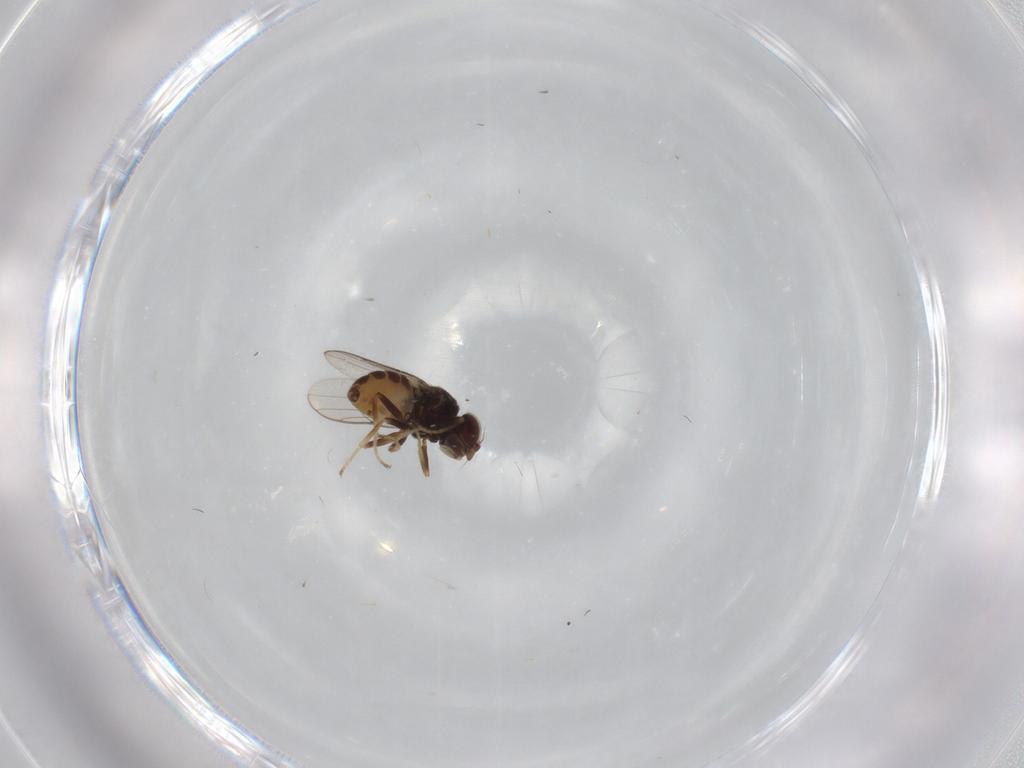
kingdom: Animalia
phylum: Arthropoda
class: Insecta
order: Diptera
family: Chloropidae
